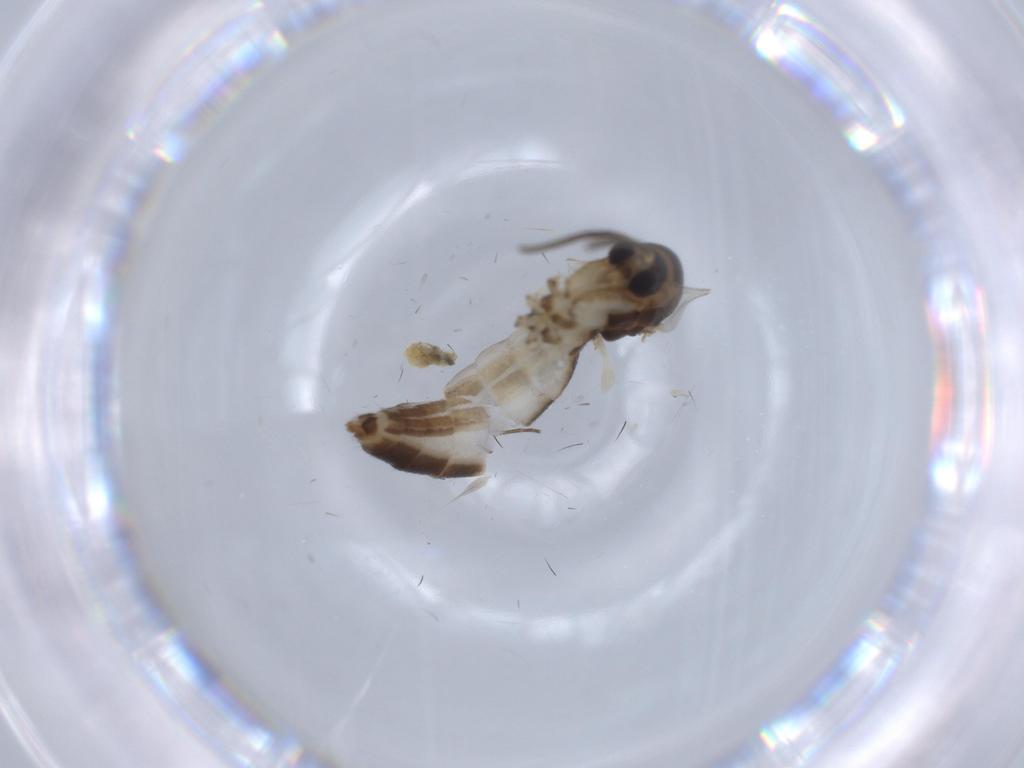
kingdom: Animalia
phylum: Arthropoda
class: Insecta
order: Diptera
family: Mycetophilidae
